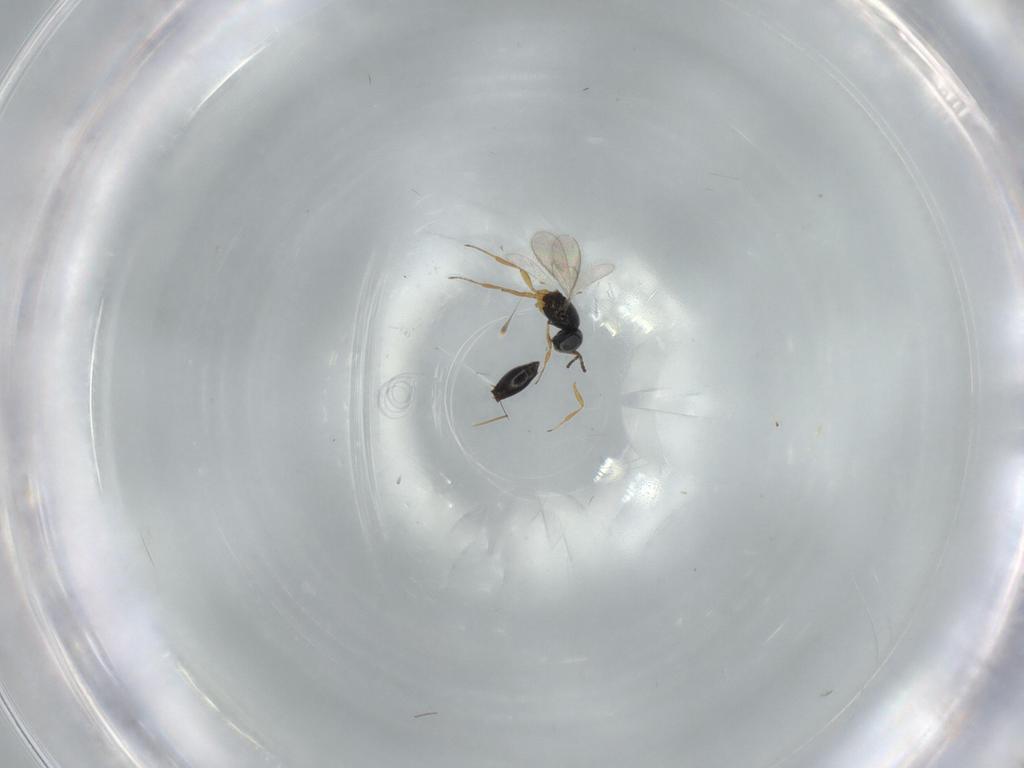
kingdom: Animalia
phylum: Arthropoda
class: Insecta
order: Hymenoptera
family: Scelionidae
